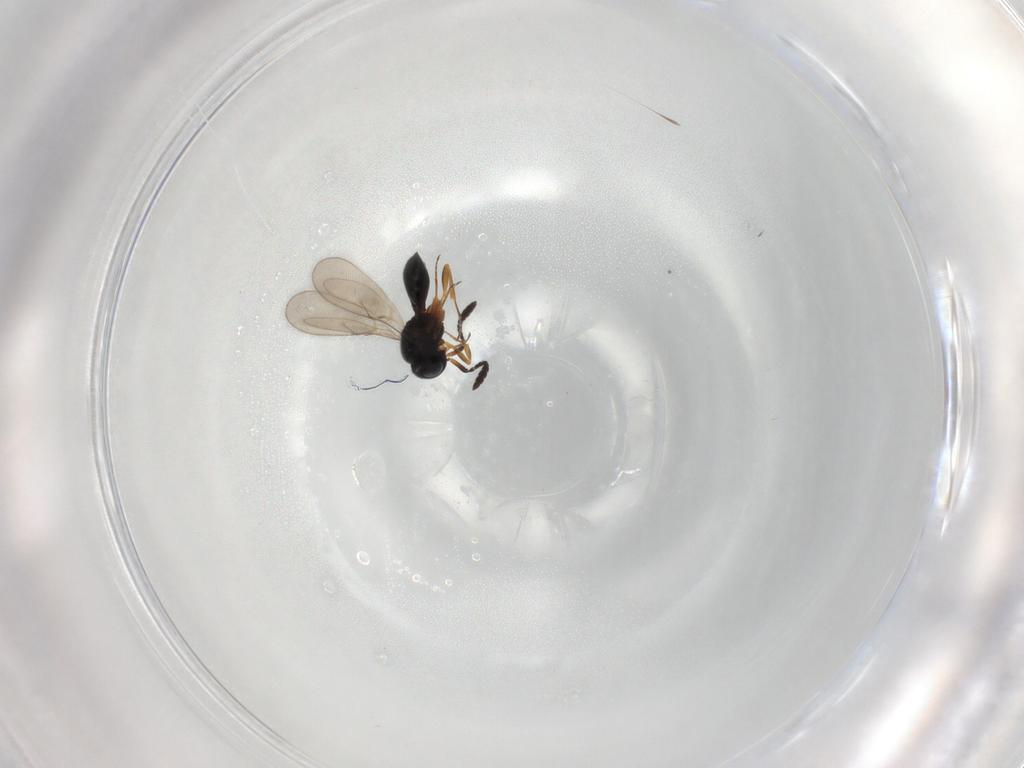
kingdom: Animalia
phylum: Arthropoda
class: Insecta
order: Hymenoptera
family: Scelionidae
